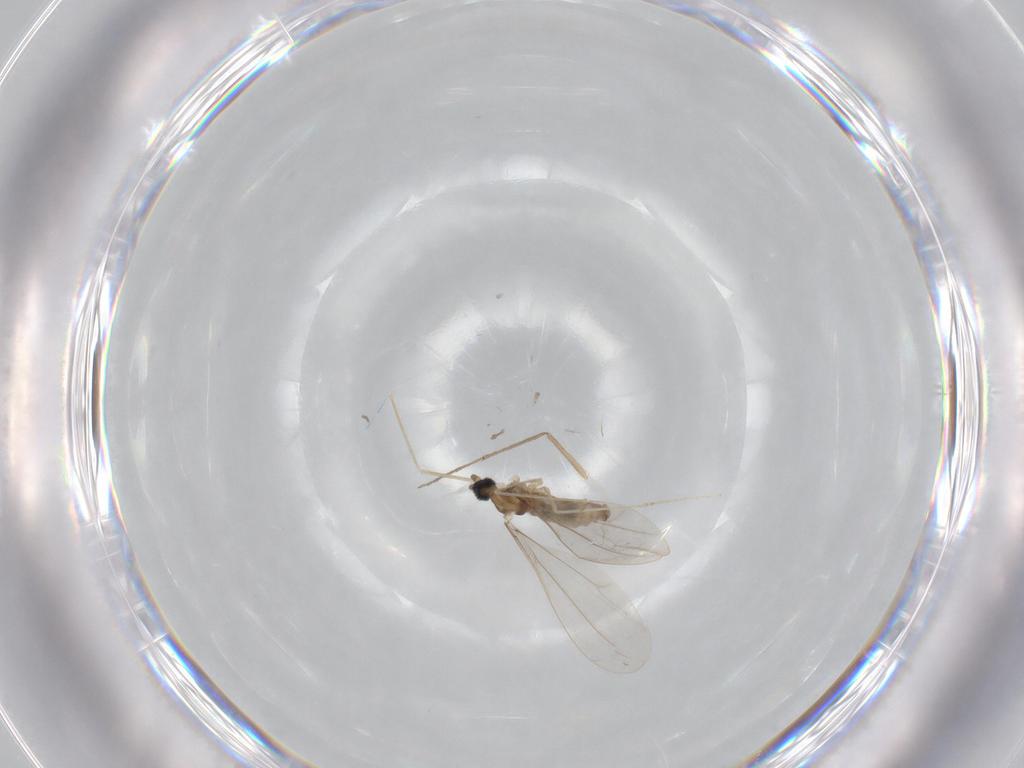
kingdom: Animalia
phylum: Arthropoda
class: Insecta
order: Diptera
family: Cecidomyiidae
